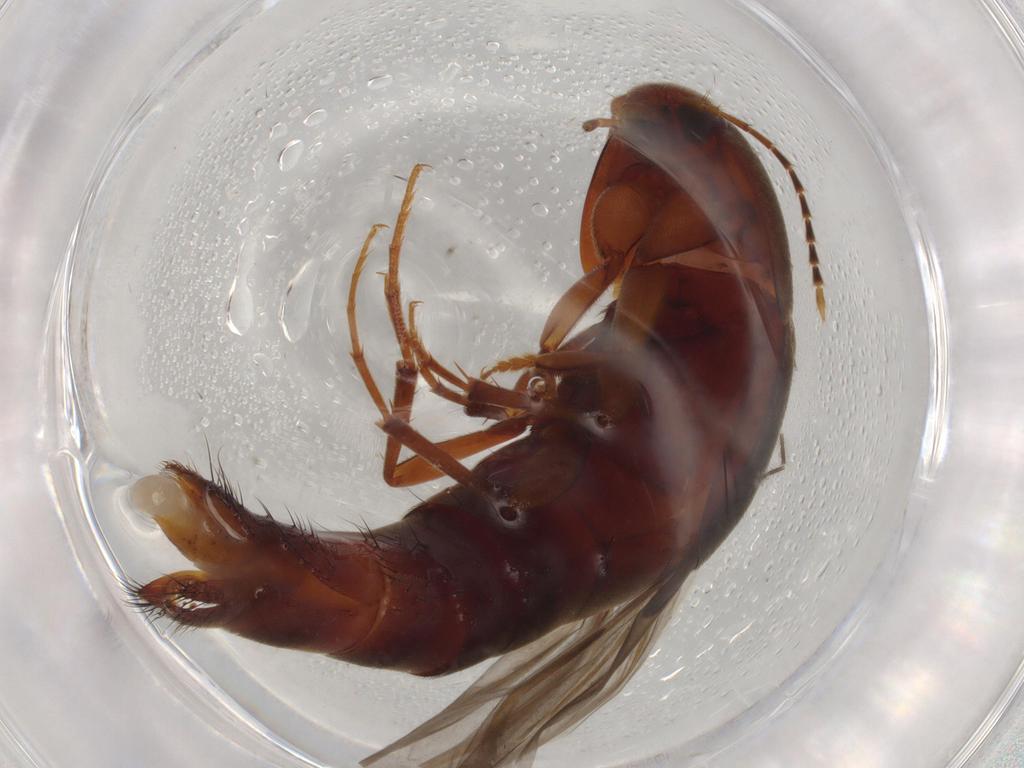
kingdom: Animalia
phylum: Arthropoda
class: Insecta
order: Coleoptera
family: Staphylinidae
